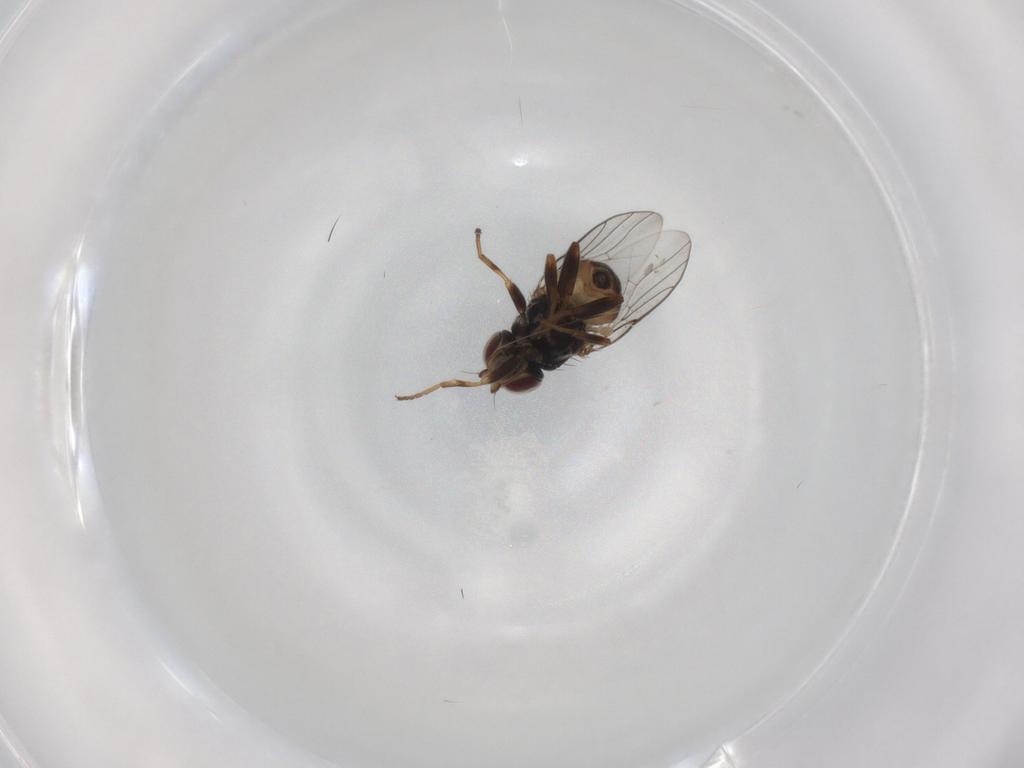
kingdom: Animalia
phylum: Arthropoda
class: Insecta
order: Diptera
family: Chloropidae
